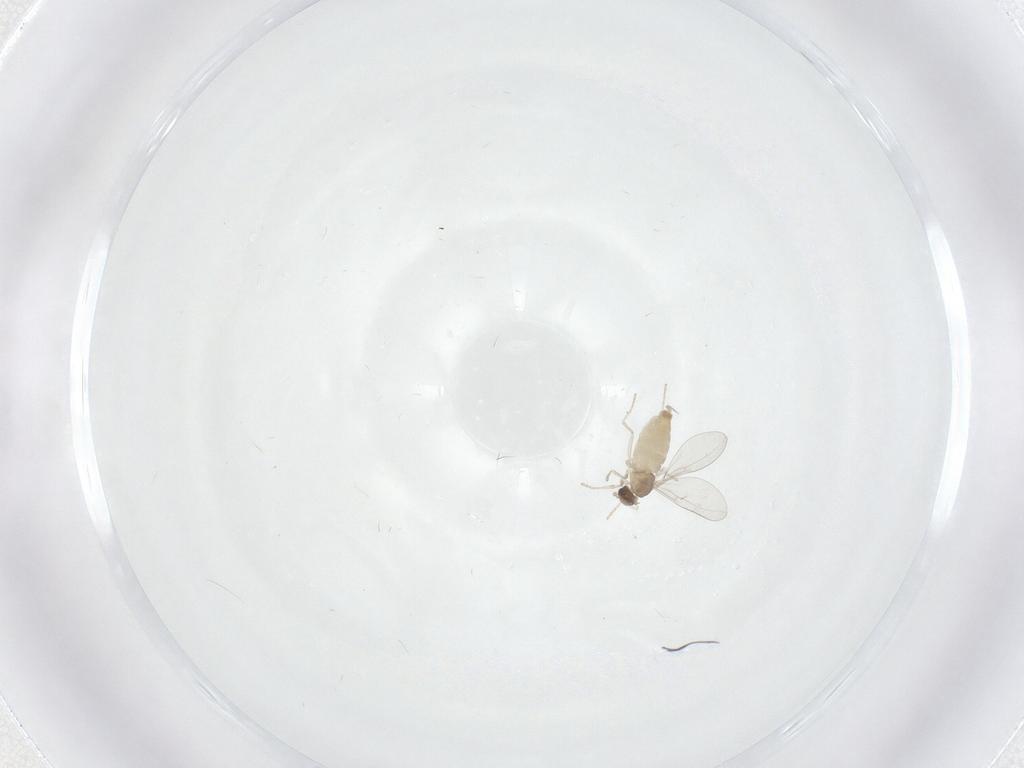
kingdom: Animalia
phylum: Arthropoda
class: Insecta
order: Diptera
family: Psychodidae
